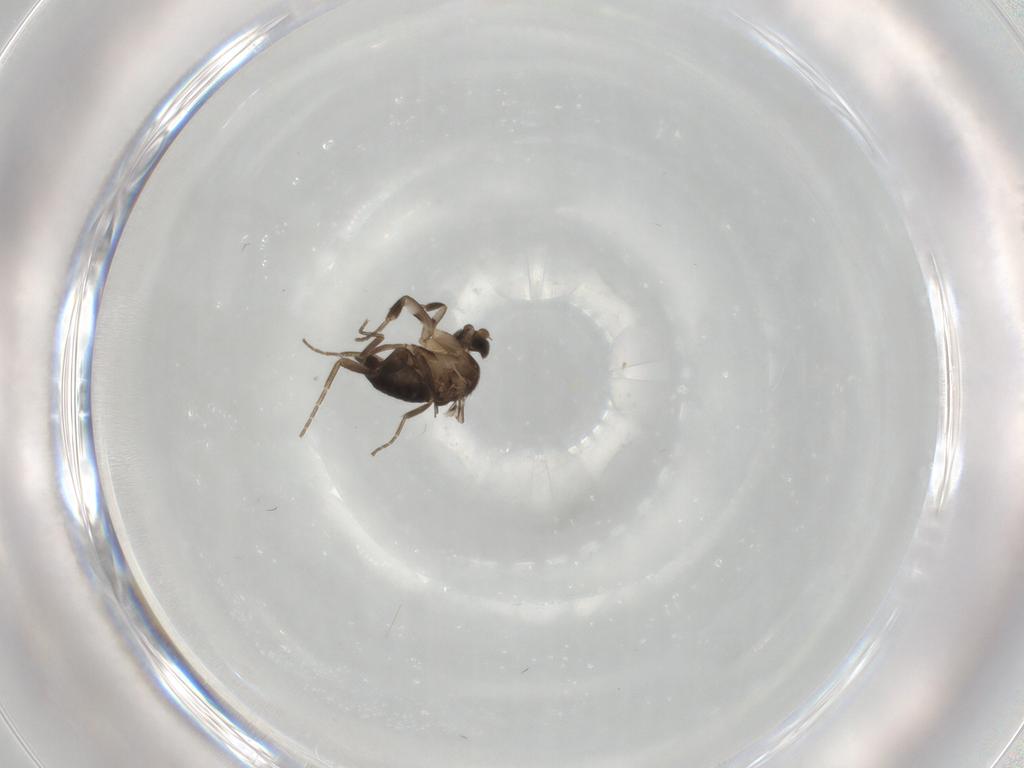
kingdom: Animalia
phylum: Arthropoda
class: Insecta
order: Diptera
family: Phoridae
